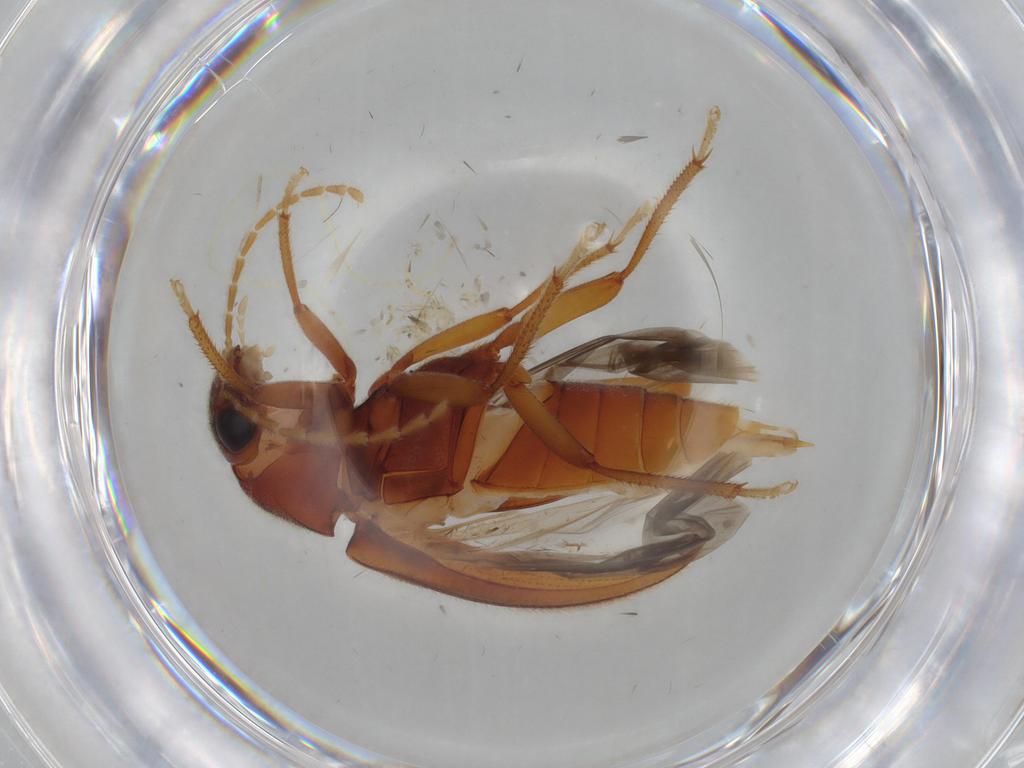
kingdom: Animalia
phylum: Arthropoda
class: Insecta
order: Coleoptera
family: Ptilodactylidae
